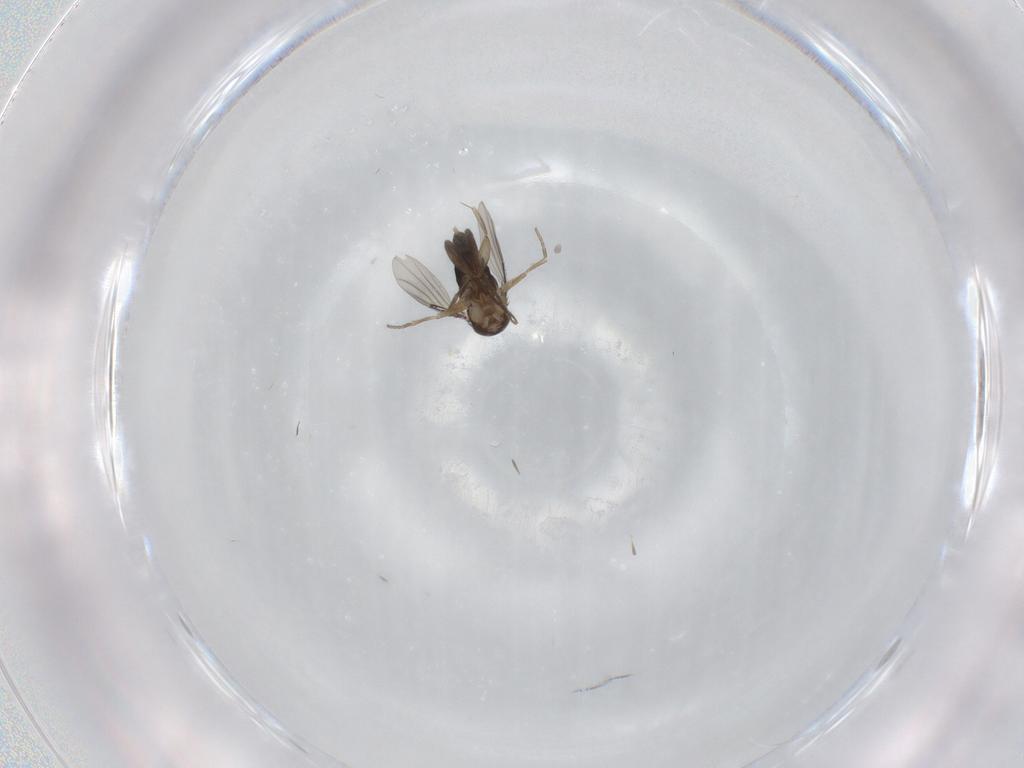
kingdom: Animalia
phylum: Arthropoda
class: Insecta
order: Diptera
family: Phoridae
